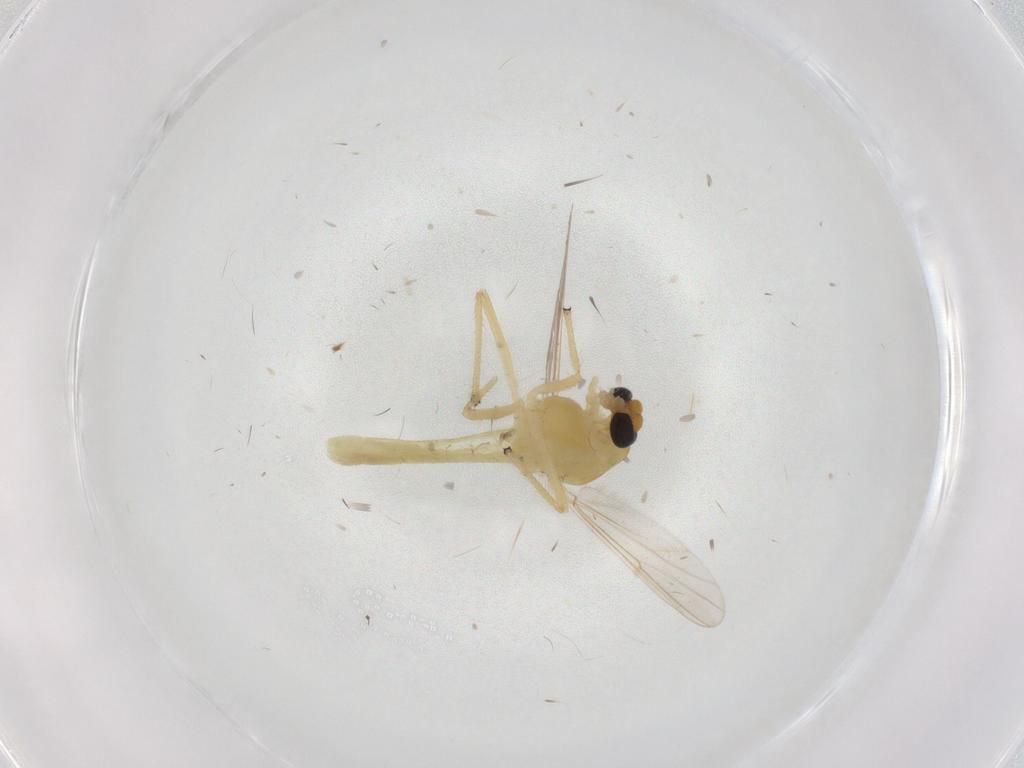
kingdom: Animalia
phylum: Arthropoda
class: Insecta
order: Diptera
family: Chironomidae
